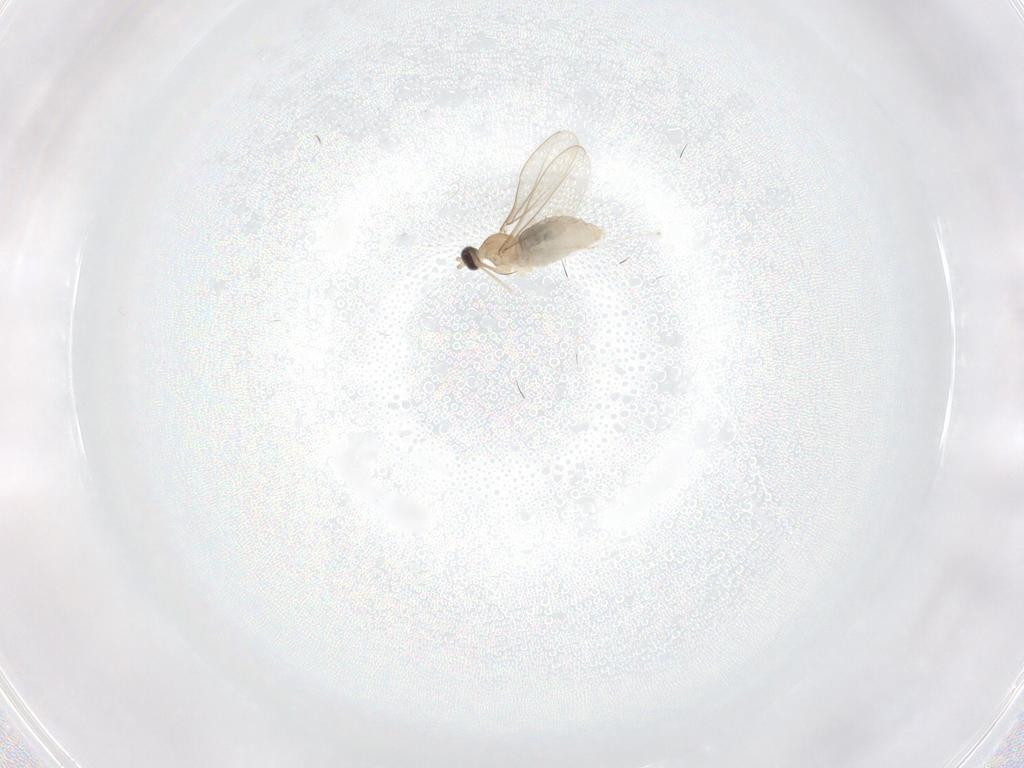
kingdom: Animalia
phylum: Arthropoda
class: Insecta
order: Diptera
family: Cecidomyiidae
